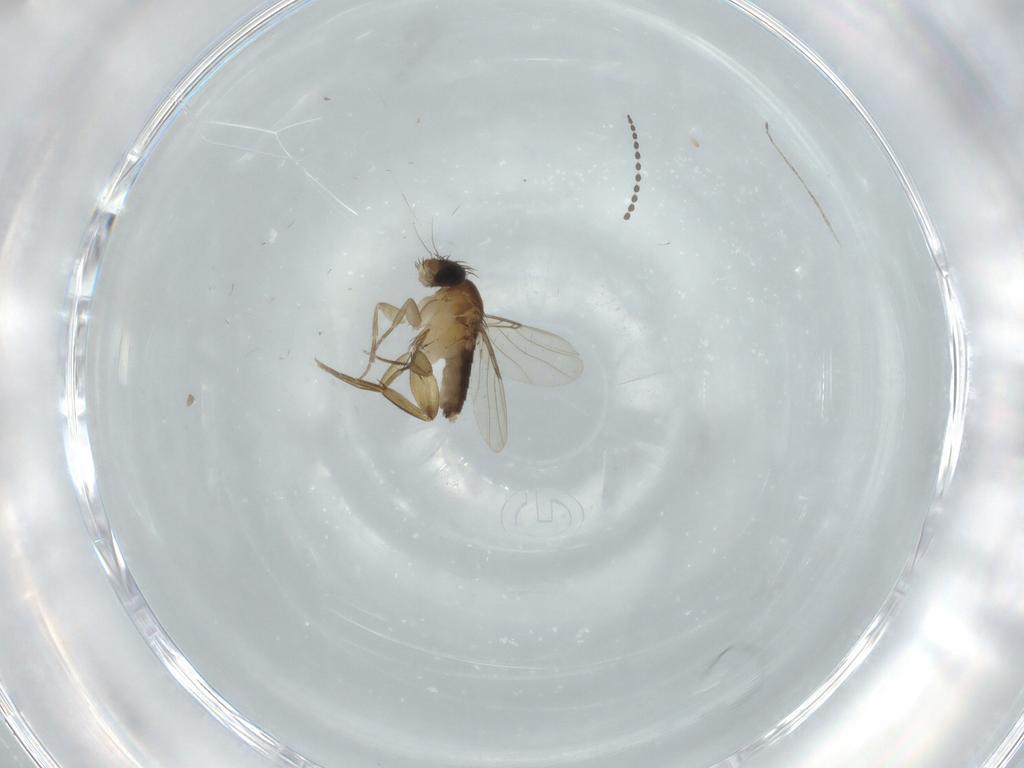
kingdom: Animalia
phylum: Arthropoda
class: Insecta
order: Diptera
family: Phoridae
